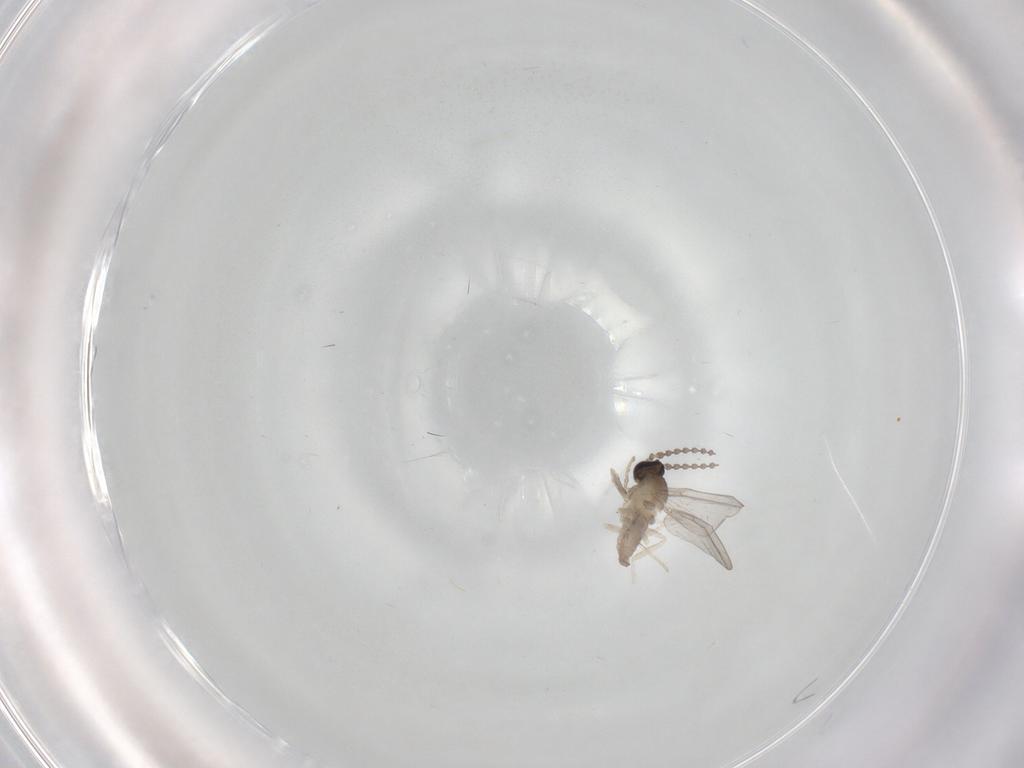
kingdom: Animalia
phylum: Arthropoda
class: Insecta
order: Diptera
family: Cecidomyiidae
